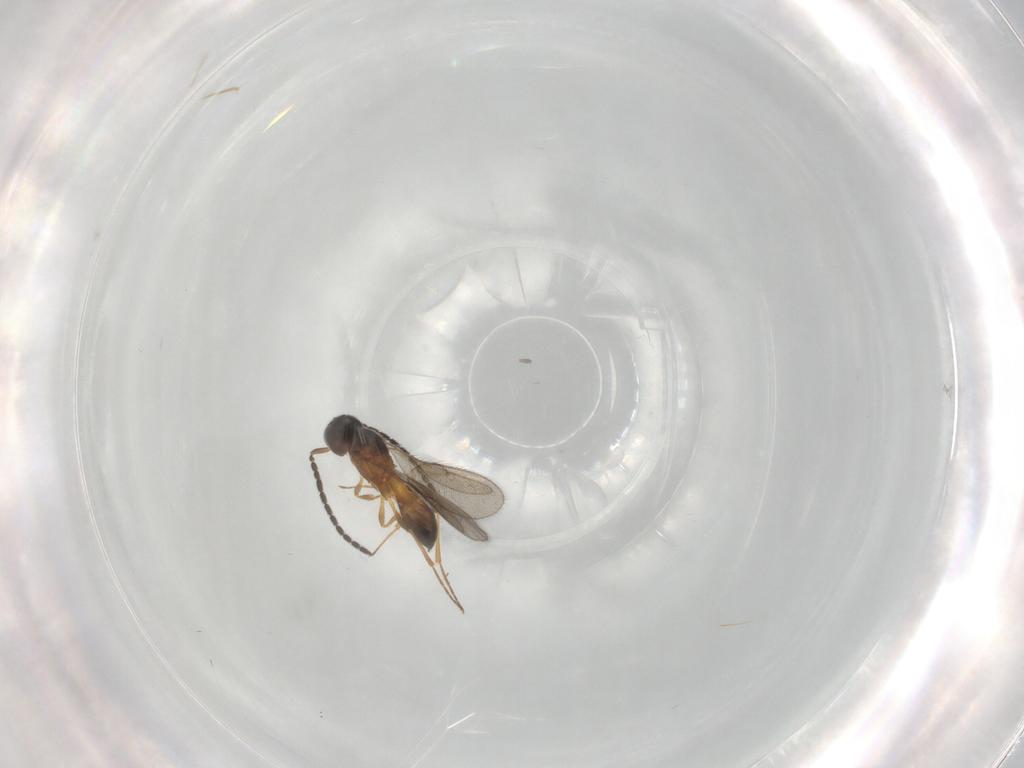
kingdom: Animalia
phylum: Arthropoda
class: Insecta
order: Hymenoptera
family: Scelionidae
